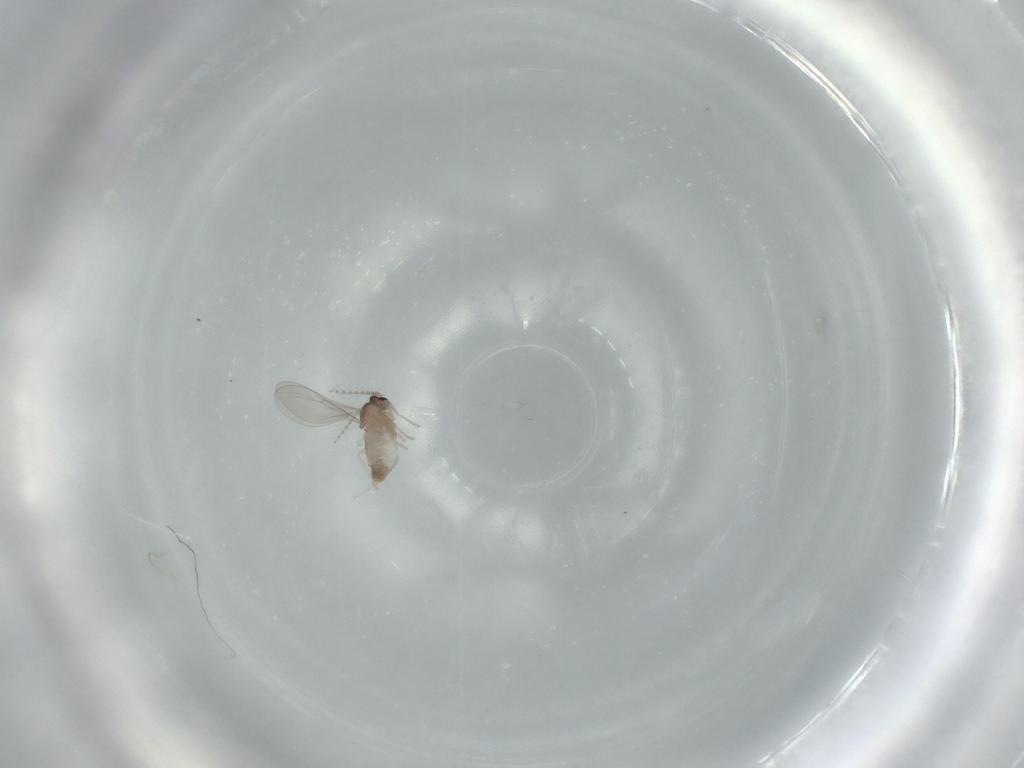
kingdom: Animalia
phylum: Arthropoda
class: Insecta
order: Diptera
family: Cecidomyiidae
